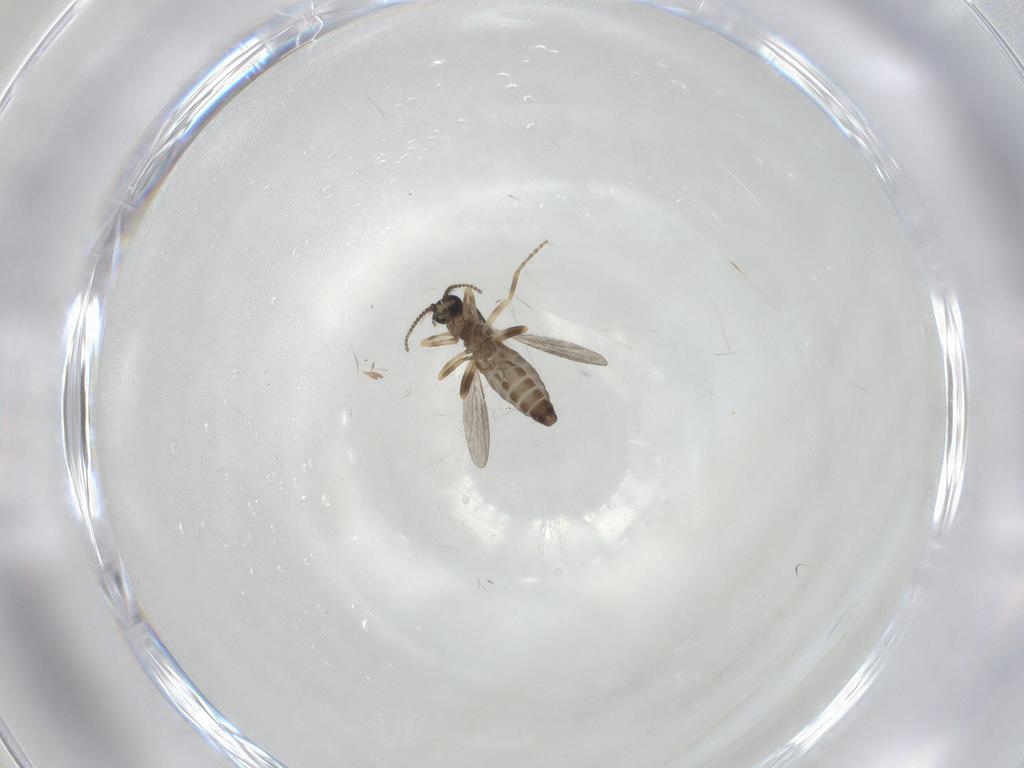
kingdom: Animalia
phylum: Arthropoda
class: Insecta
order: Diptera
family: Ceratopogonidae
